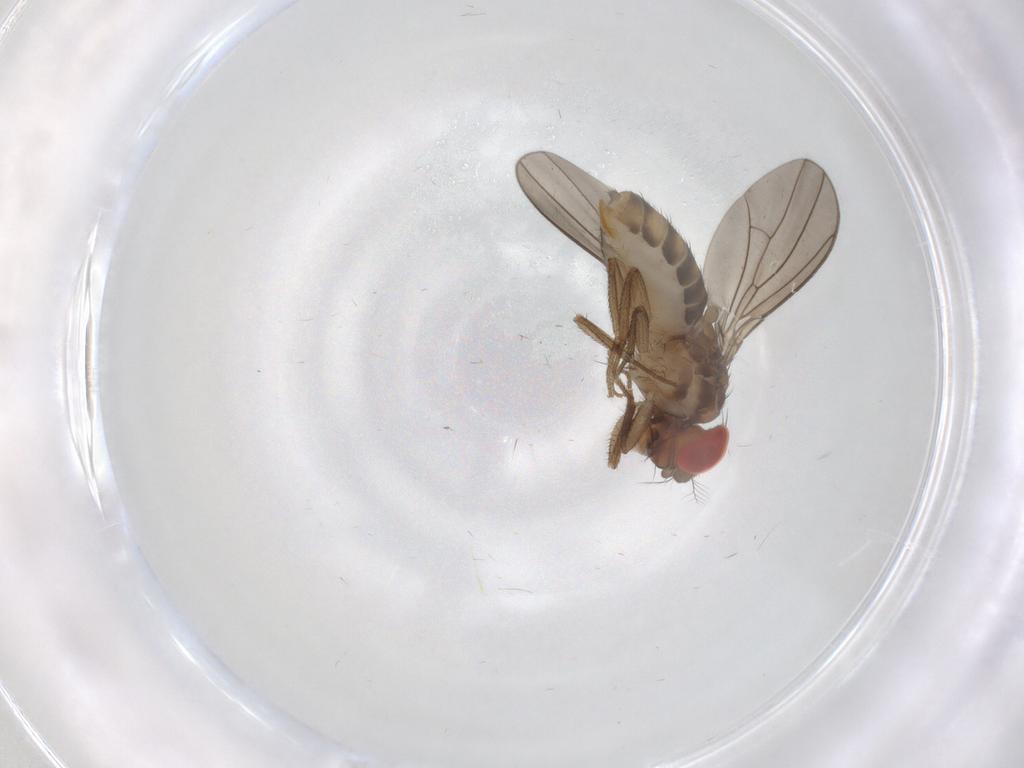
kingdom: Animalia
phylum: Arthropoda
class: Insecta
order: Diptera
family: Drosophilidae
